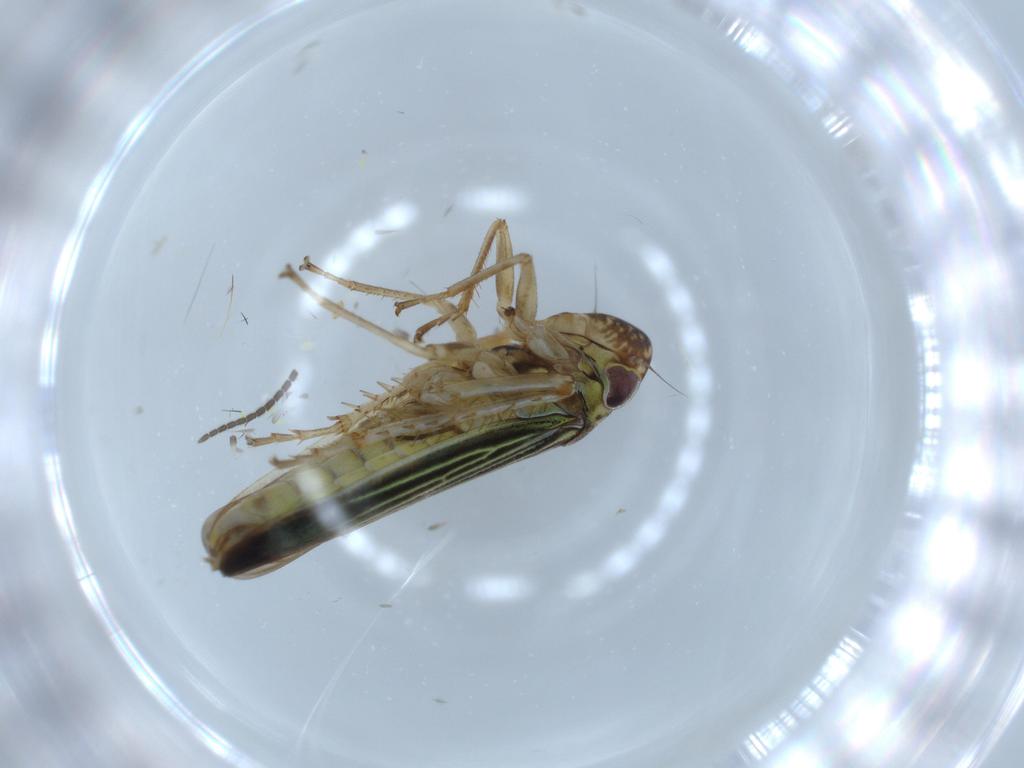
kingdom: Animalia
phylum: Arthropoda
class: Insecta
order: Hemiptera
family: Cicadellidae
